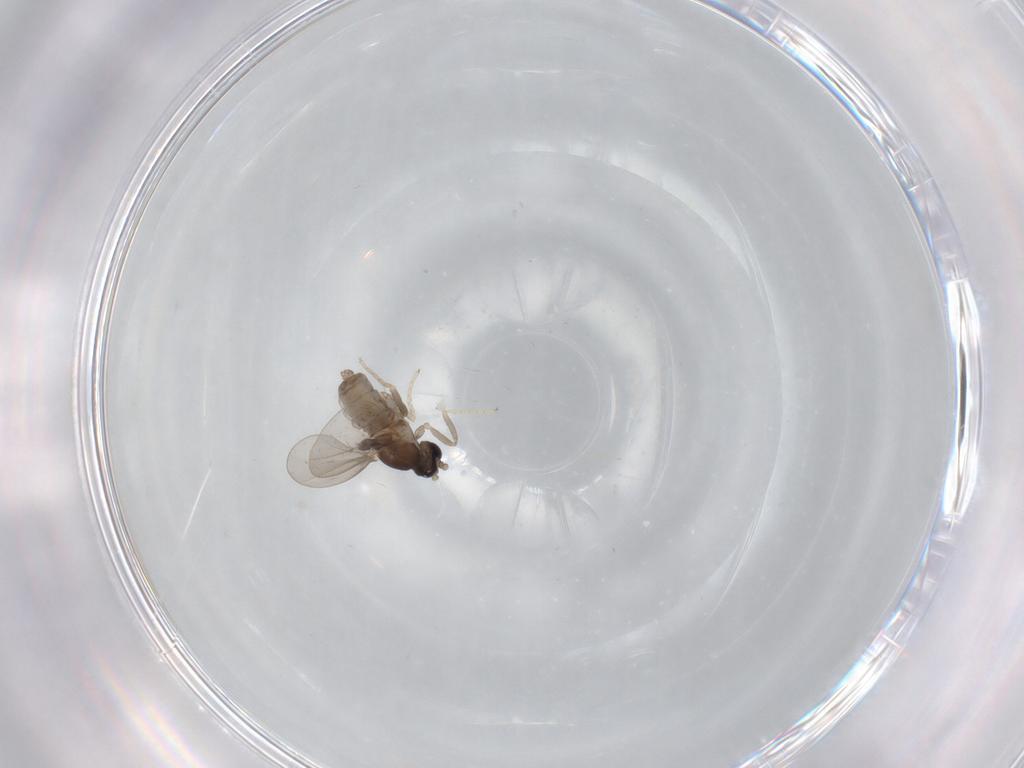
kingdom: Animalia
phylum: Arthropoda
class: Insecta
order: Diptera
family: Cecidomyiidae
